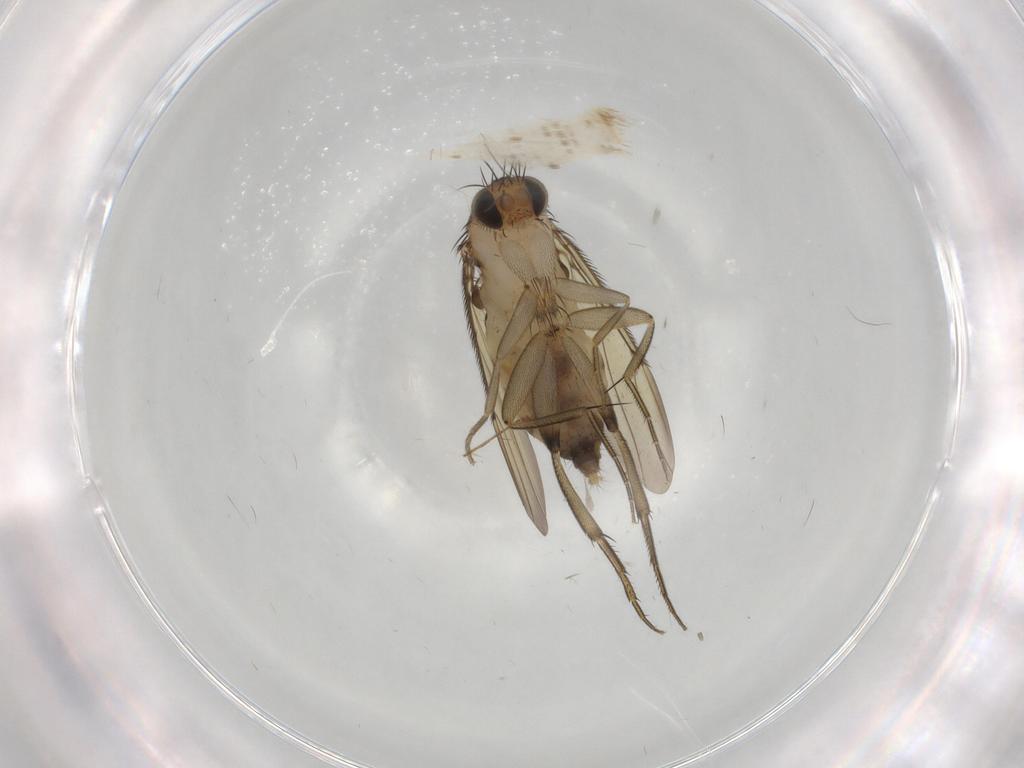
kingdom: Animalia
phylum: Arthropoda
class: Insecta
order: Diptera
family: Phoridae
